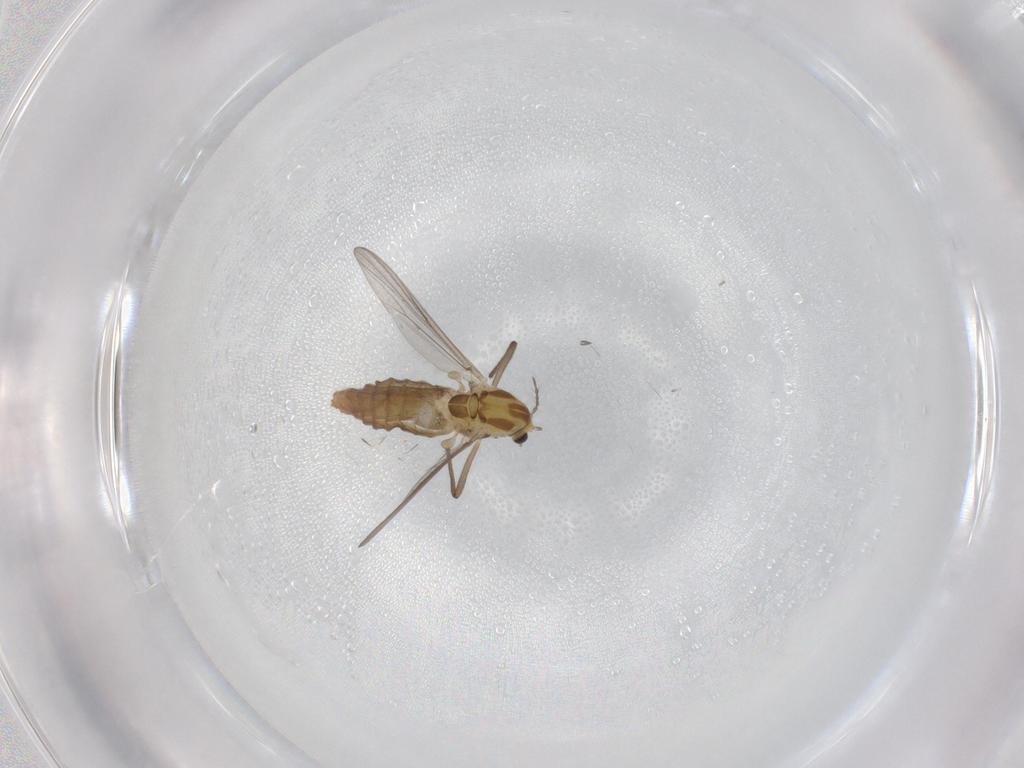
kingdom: Animalia
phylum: Arthropoda
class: Insecta
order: Diptera
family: Chironomidae
